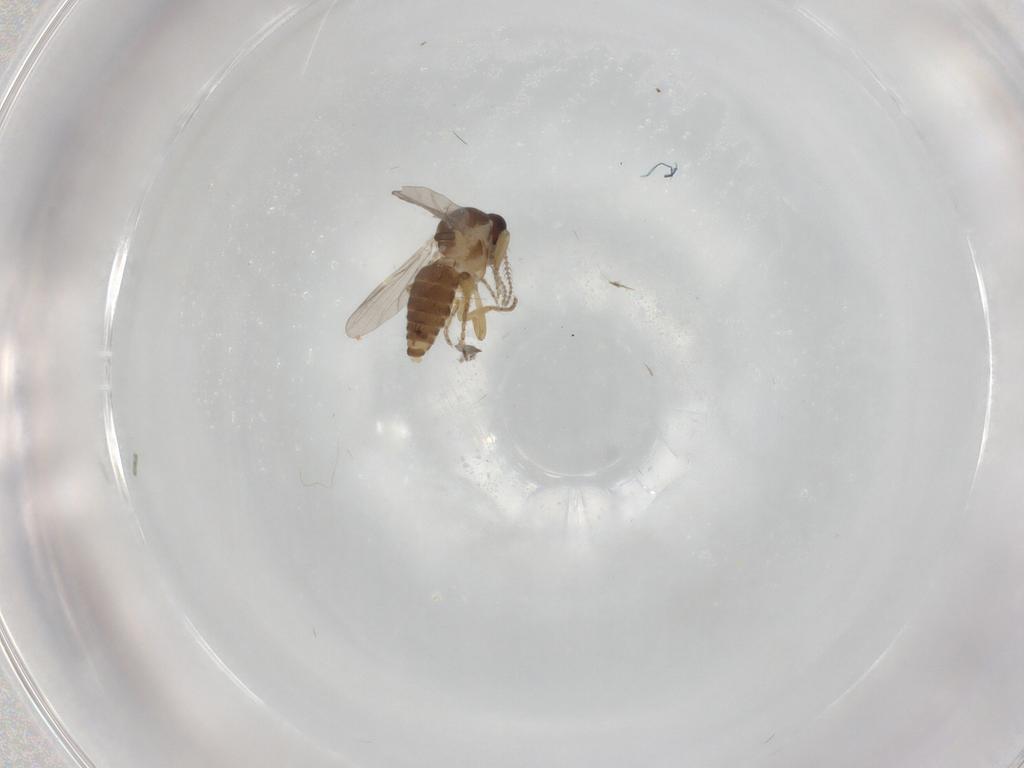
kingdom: Animalia
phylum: Arthropoda
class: Insecta
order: Diptera
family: Ceratopogonidae
